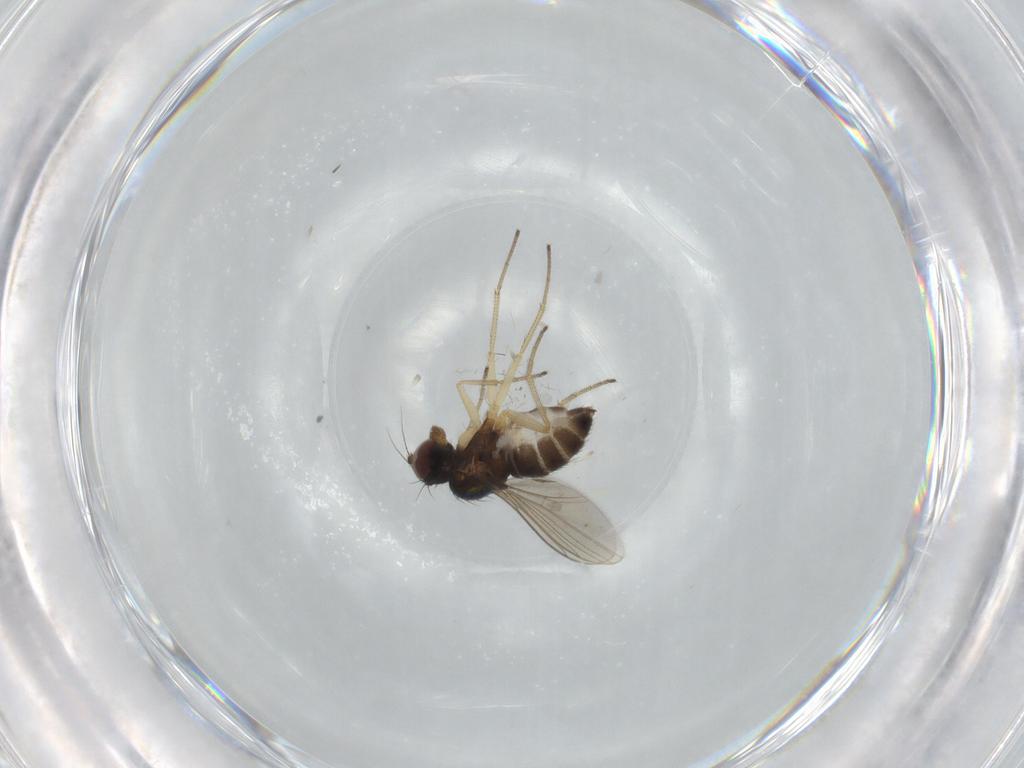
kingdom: Animalia
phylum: Arthropoda
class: Insecta
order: Diptera
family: Dolichopodidae
